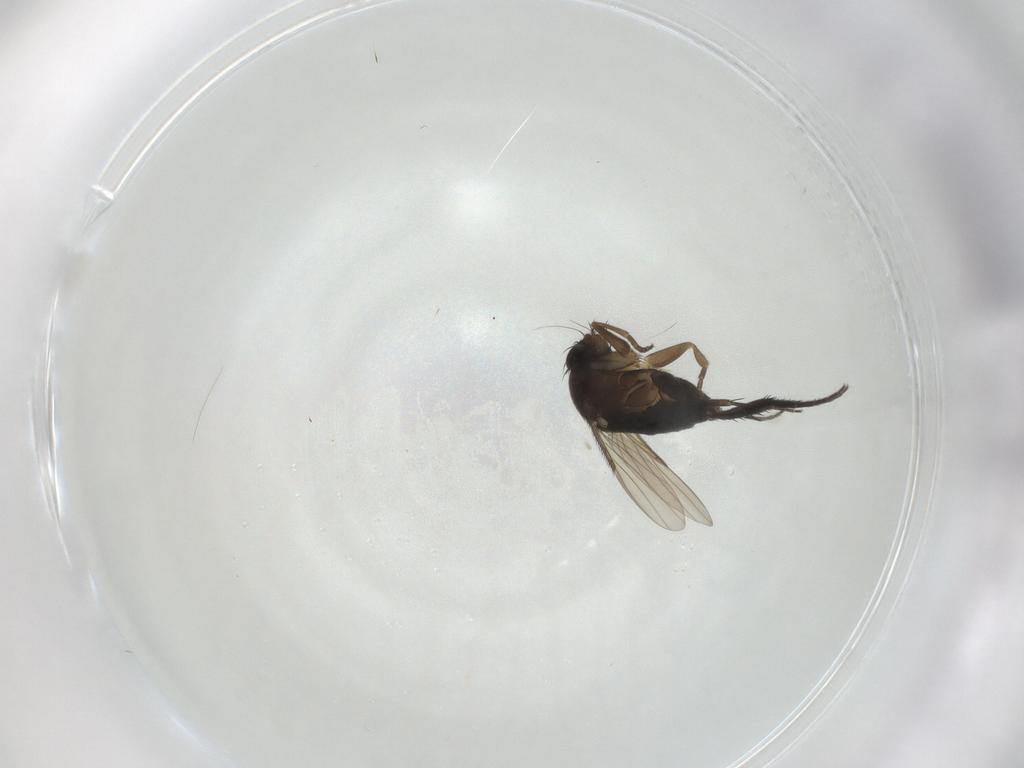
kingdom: Animalia
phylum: Arthropoda
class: Insecta
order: Diptera
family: Phoridae
